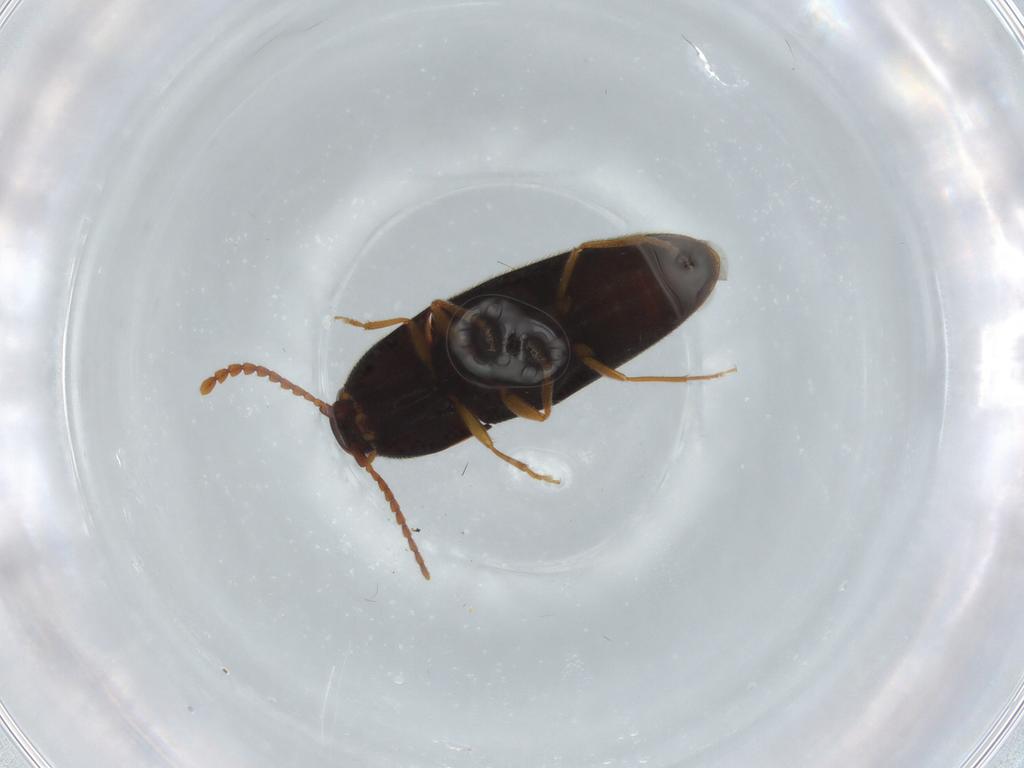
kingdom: Animalia
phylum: Arthropoda
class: Insecta
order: Coleoptera
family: Elateridae
